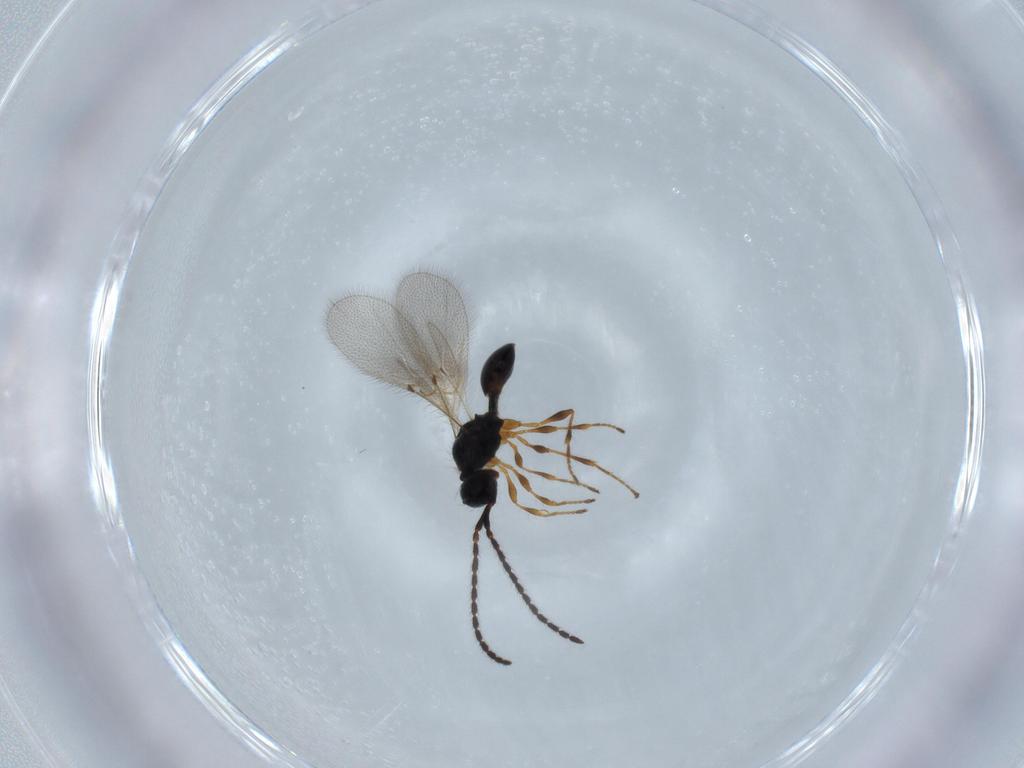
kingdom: Animalia
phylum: Arthropoda
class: Insecta
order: Hymenoptera
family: Diapriidae
